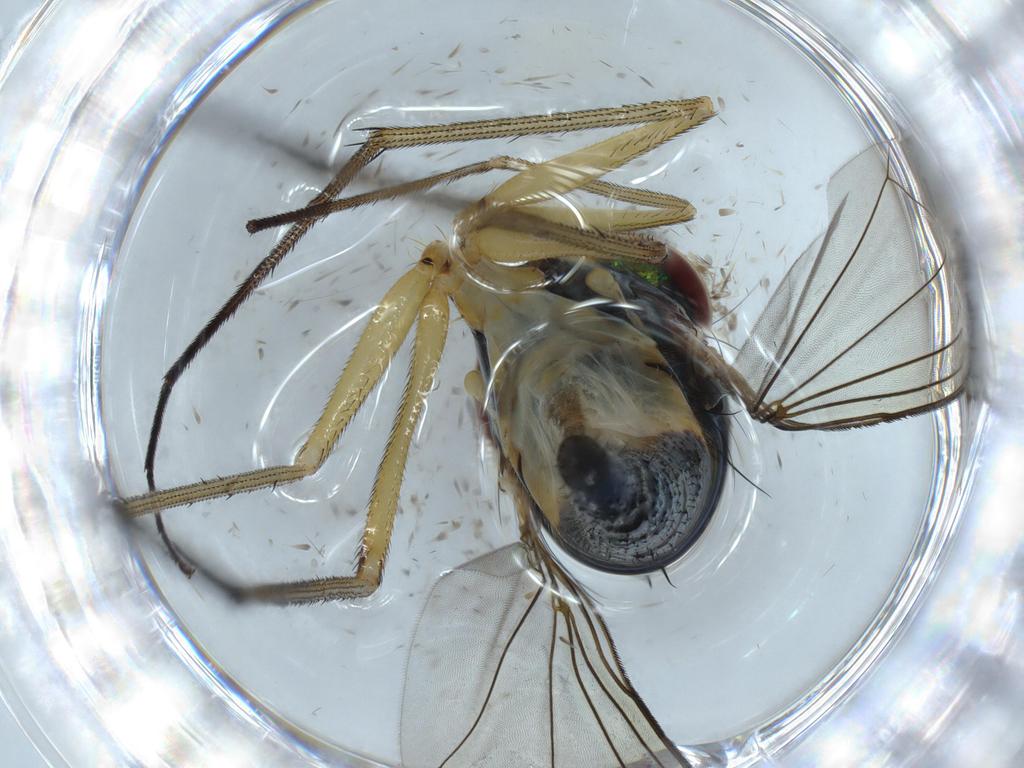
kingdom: Animalia
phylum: Arthropoda
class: Insecta
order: Diptera
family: Dolichopodidae
